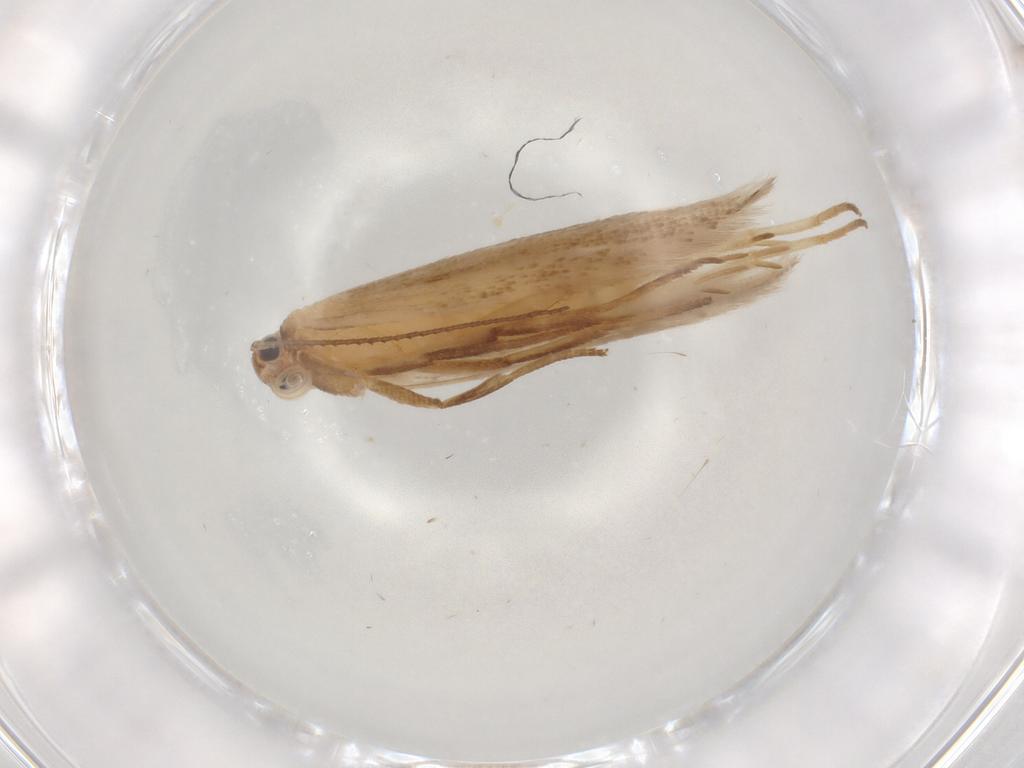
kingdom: Animalia
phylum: Arthropoda
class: Insecta
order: Lepidoptera
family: Gelechiidae
